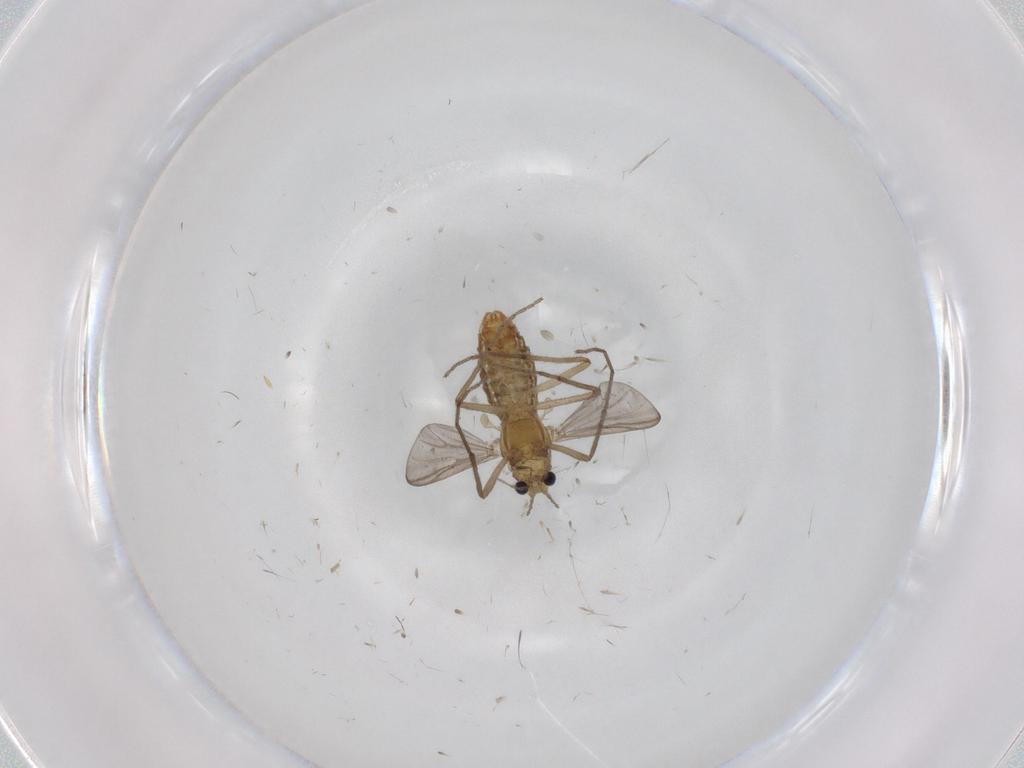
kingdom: Animalia
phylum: Arthropoda
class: Insecta
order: Diptera
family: Chironomidae
